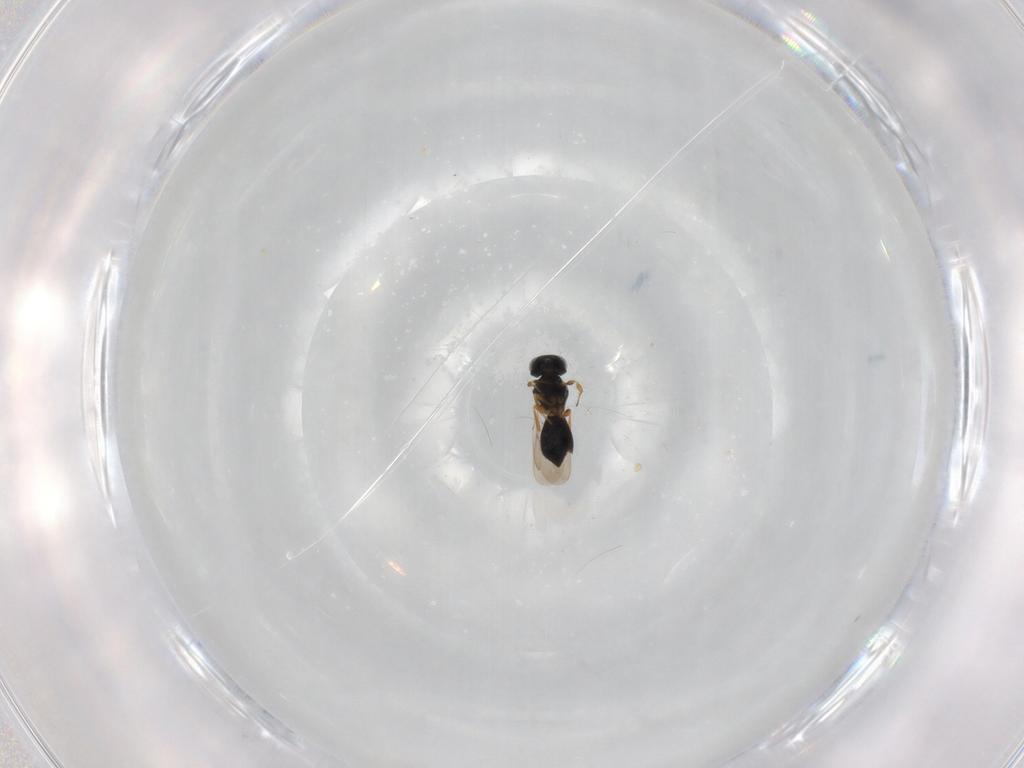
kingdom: Animalia
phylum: Arthropoda
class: Insecta
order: Hymenoptera
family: Scelionidae
